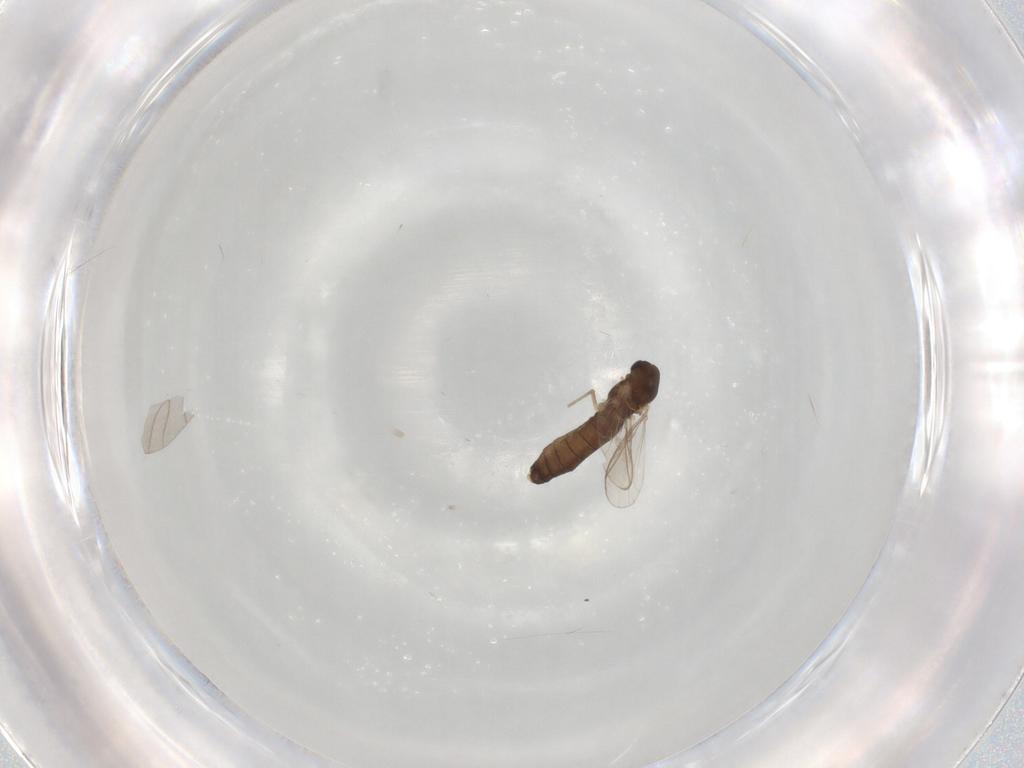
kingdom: Animalia
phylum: Arthropoda
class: Insecta
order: Diptera
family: Chironomidae
